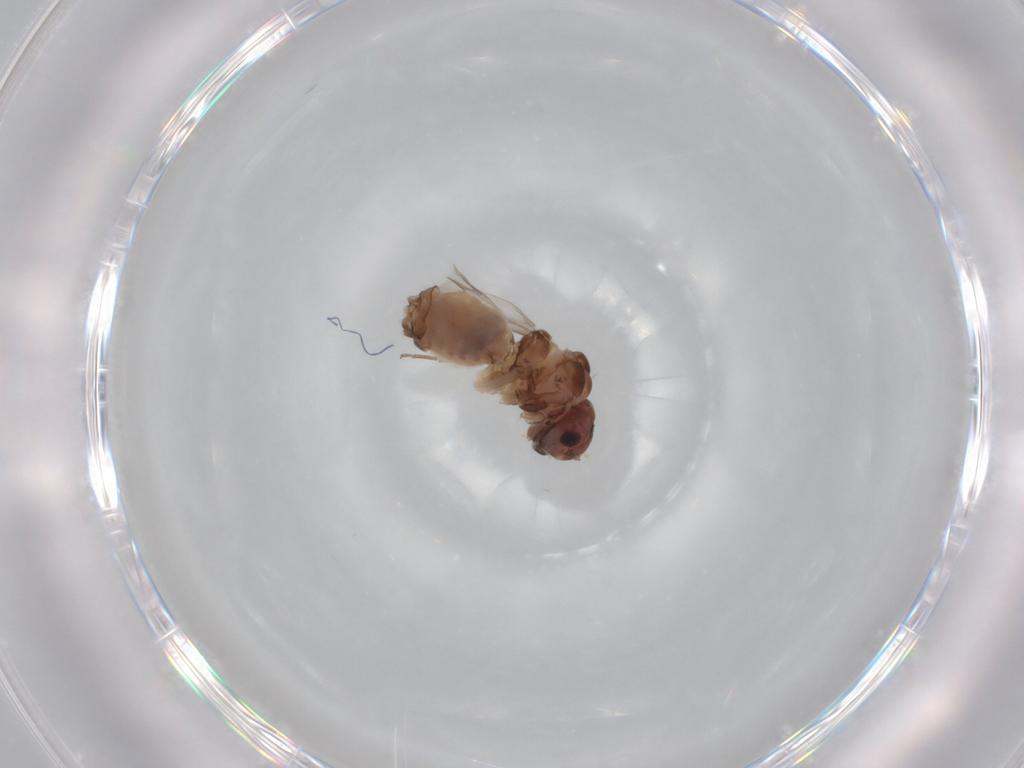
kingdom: Animalia
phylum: Arthropoda
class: Insecta
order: Psocodea
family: Peripsocidae
